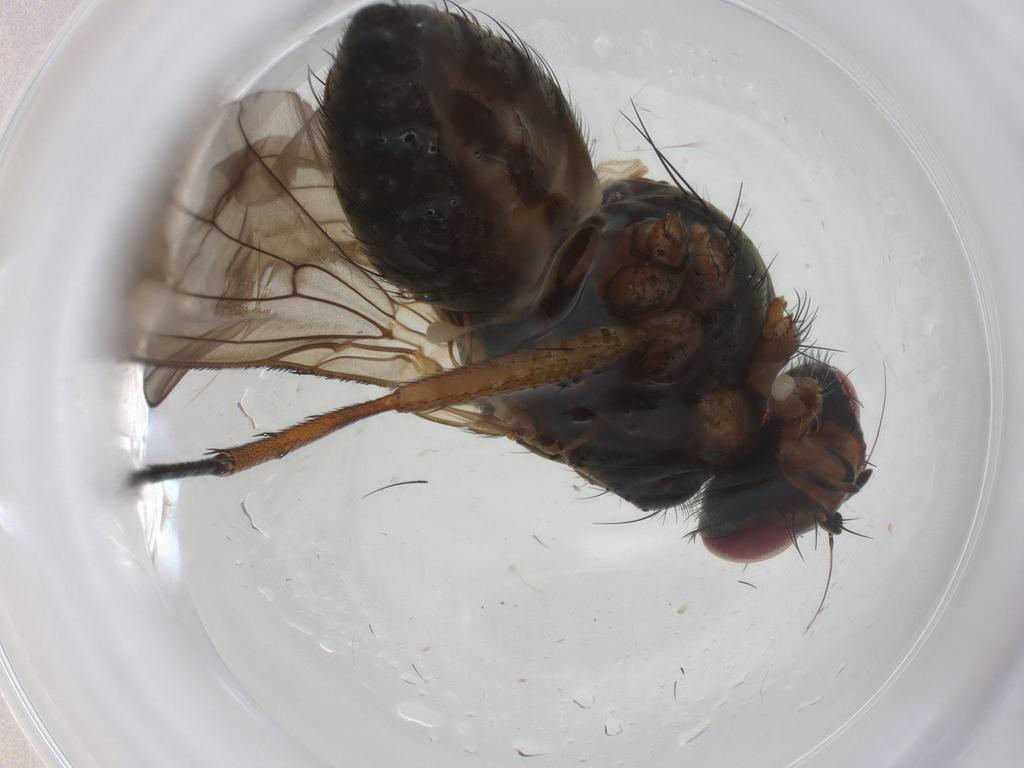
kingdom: Animalia
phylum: Arthropoda
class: Insecta
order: Diptera
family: Anthomyiidae
